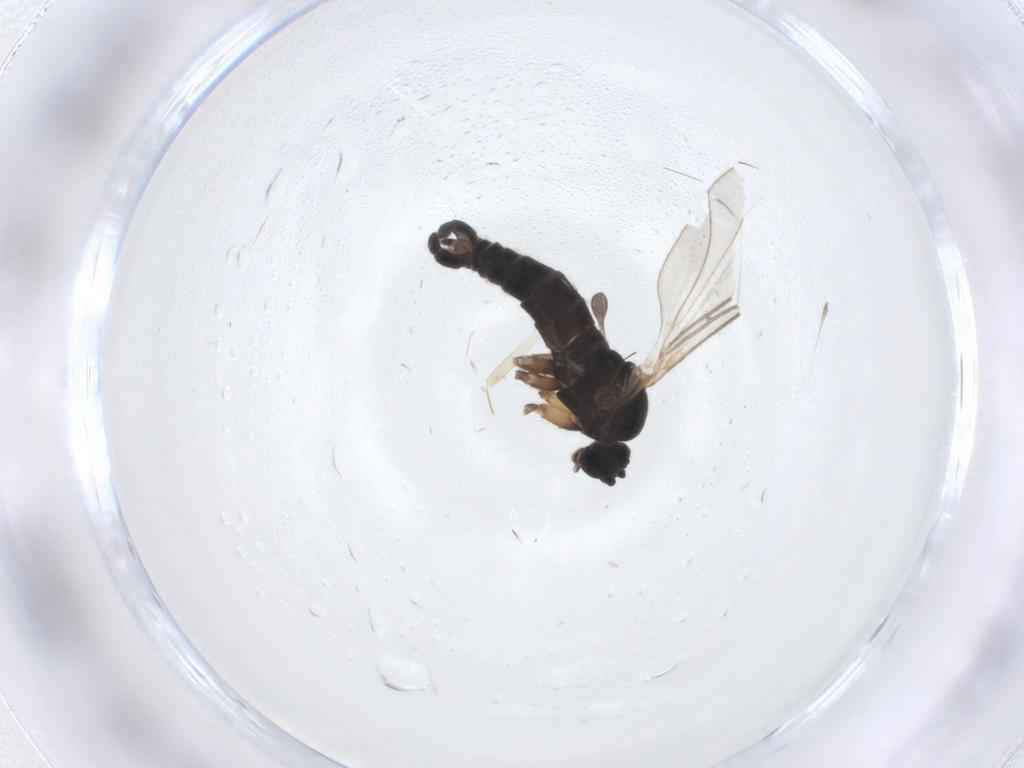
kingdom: Animalia
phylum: Arthropoda
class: Insecta
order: Diptera
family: Sciaridae
